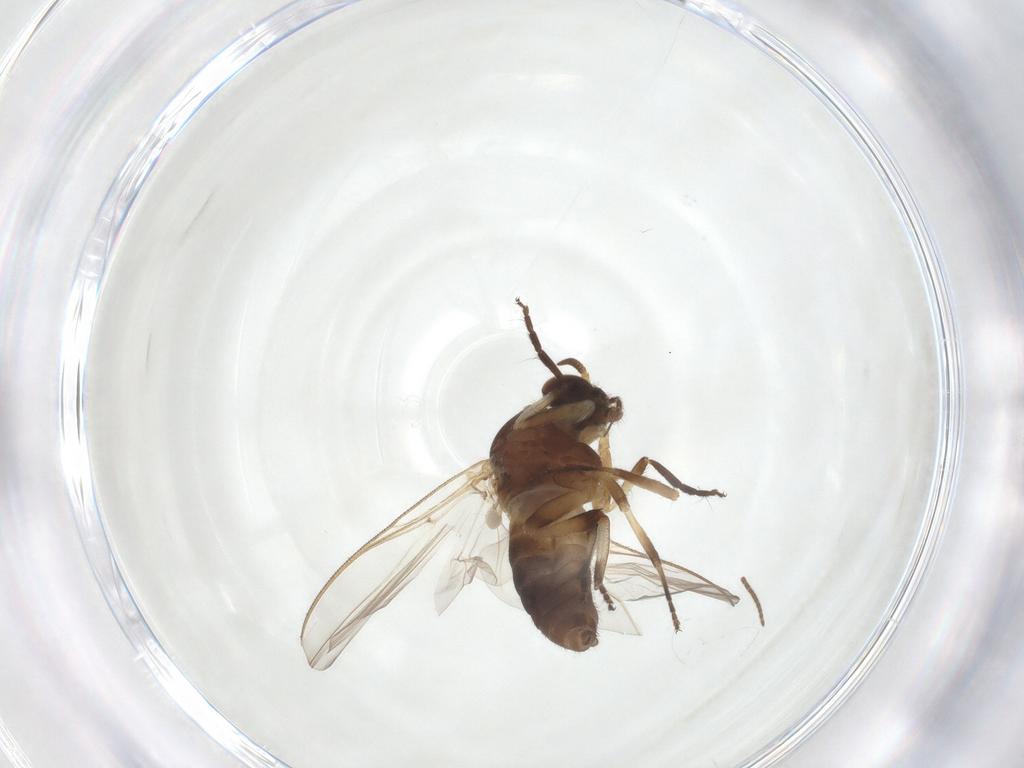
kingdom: Animalia
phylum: Arthropoda
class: Insecta
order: Diptera
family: Simuliidae
